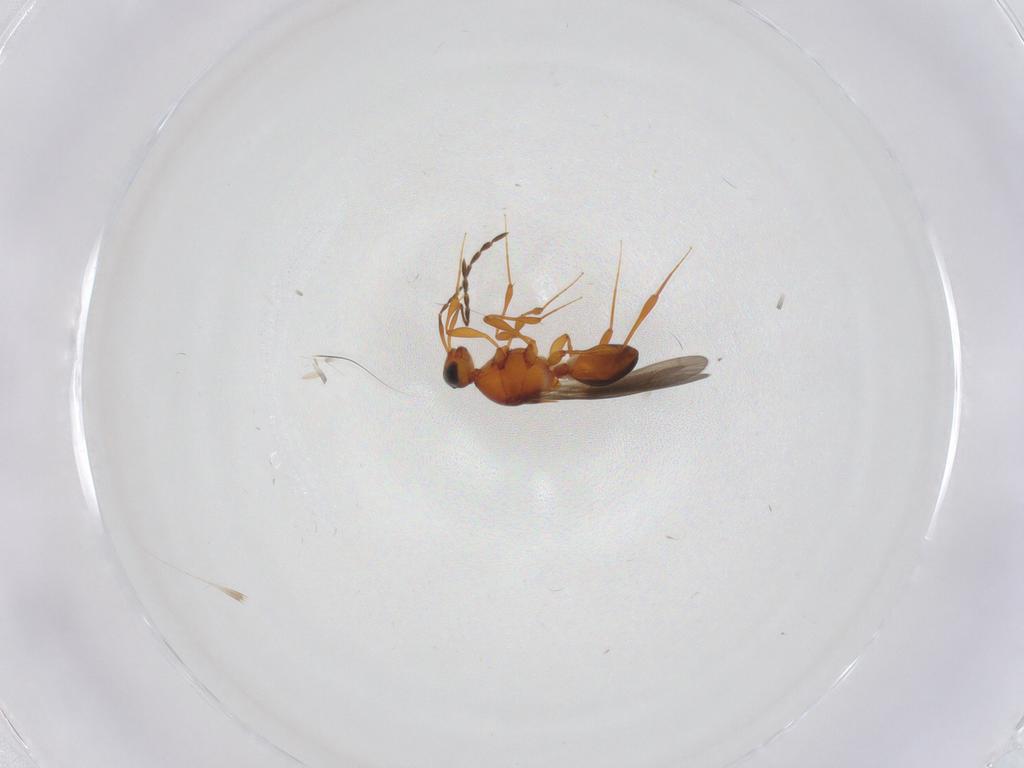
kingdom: Animalia
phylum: Arthropoda
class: Insecta
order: Hymenoptera
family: Platygastridae
